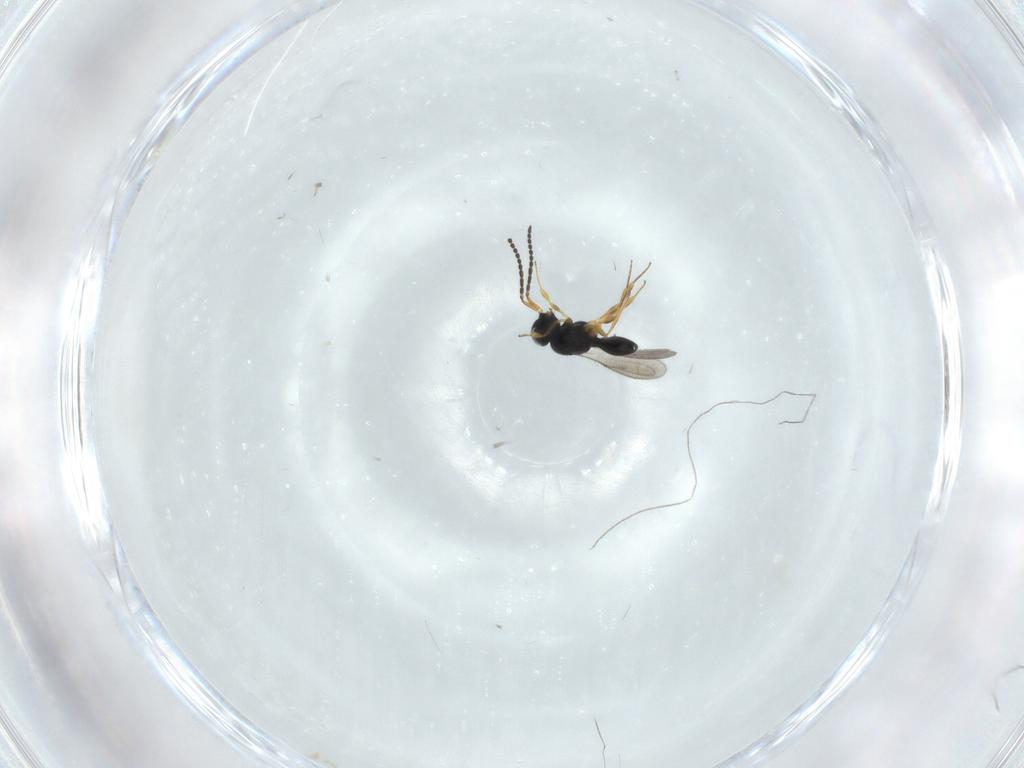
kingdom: Animalia
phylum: Arthropoda
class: Insecta
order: Hymenoptera
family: Scelionidae
